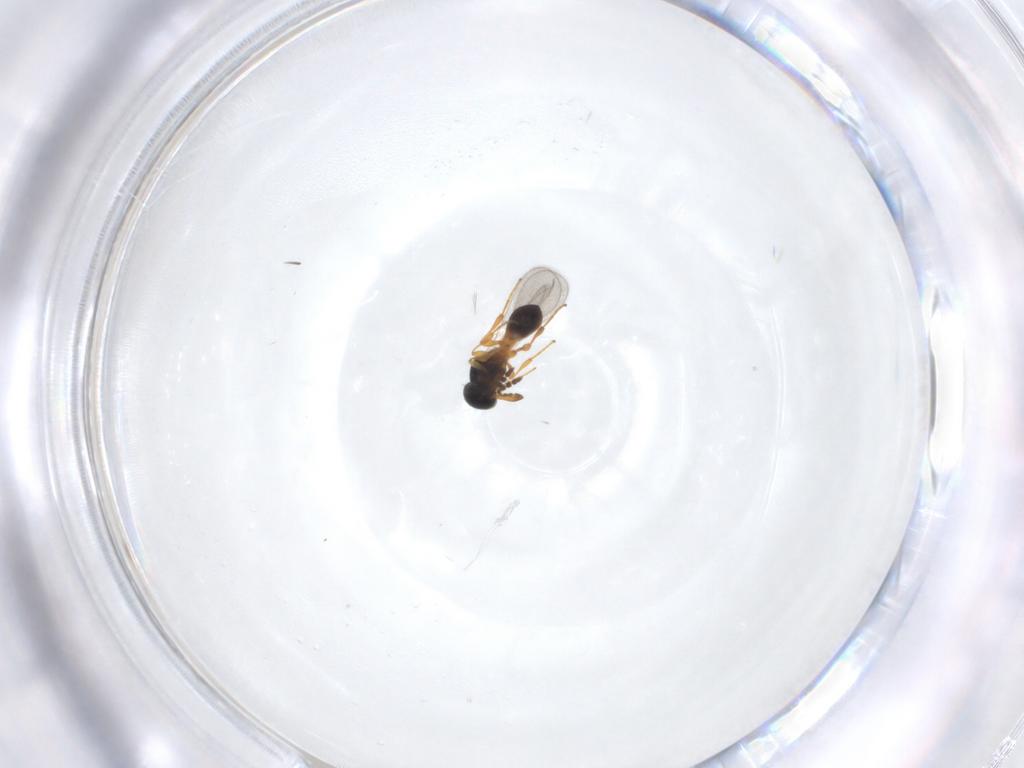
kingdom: Animalia
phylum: Arthropoda
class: Insecta
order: Hymenoptera
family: Platygastridae
